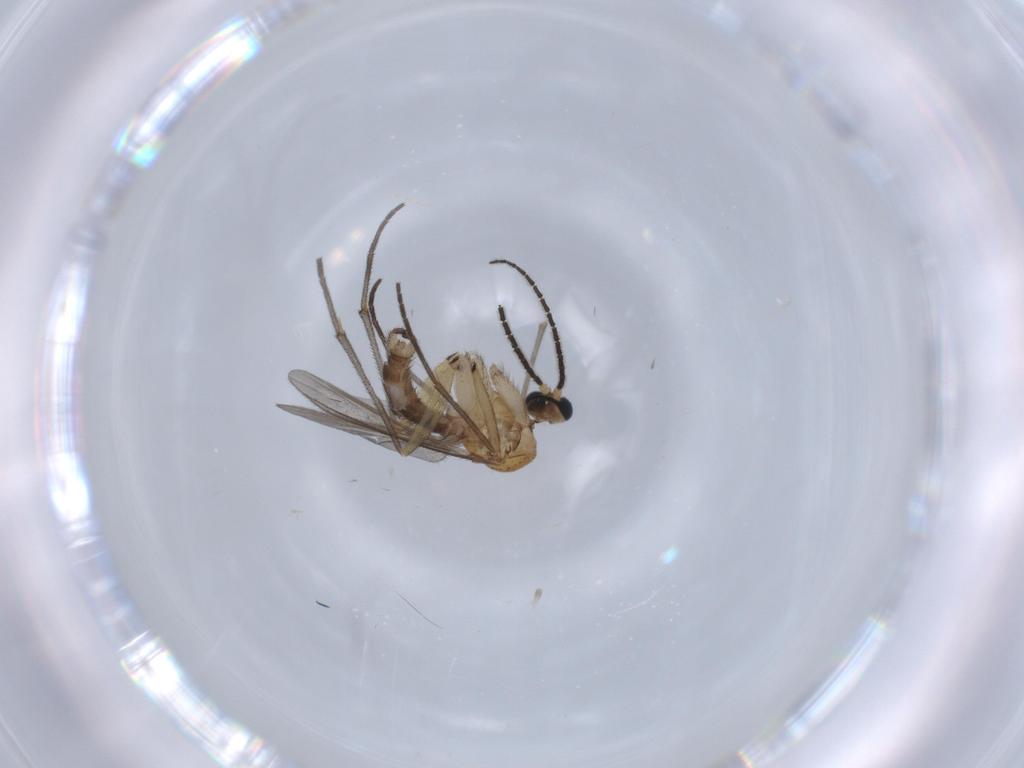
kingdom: Animalia
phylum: Arthropoda
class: Insecta
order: Diptera
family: Sciaridae
